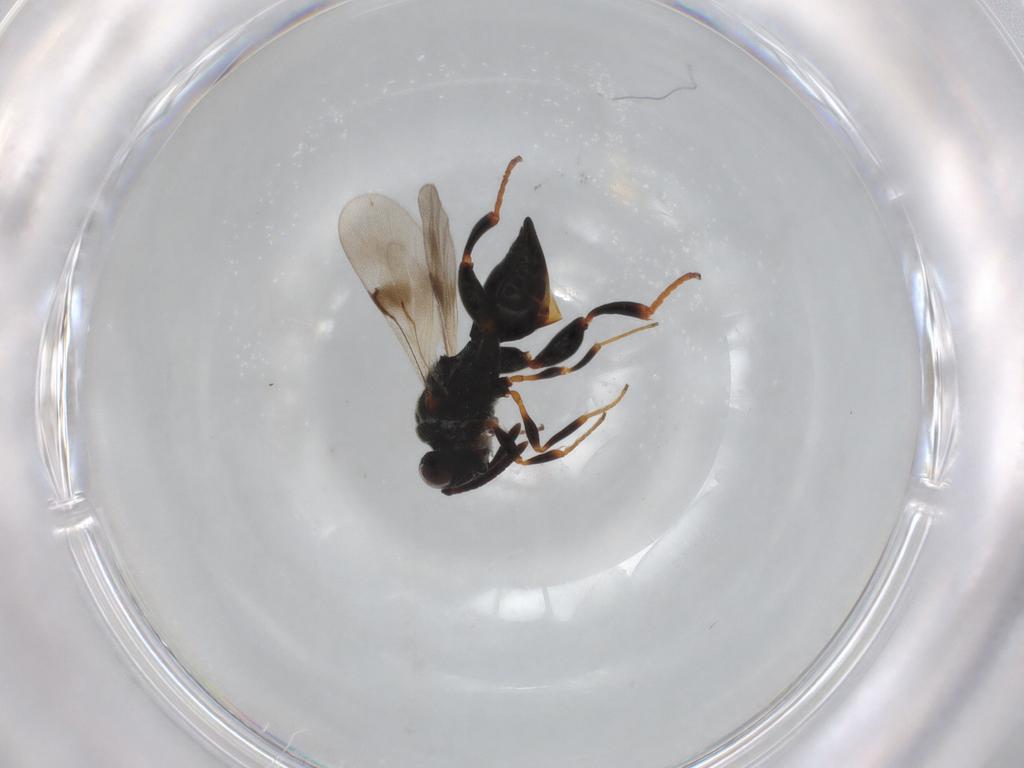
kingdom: Animalia
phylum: Arthropoda
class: Insecta
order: Hymenoptera
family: Chalcididae
